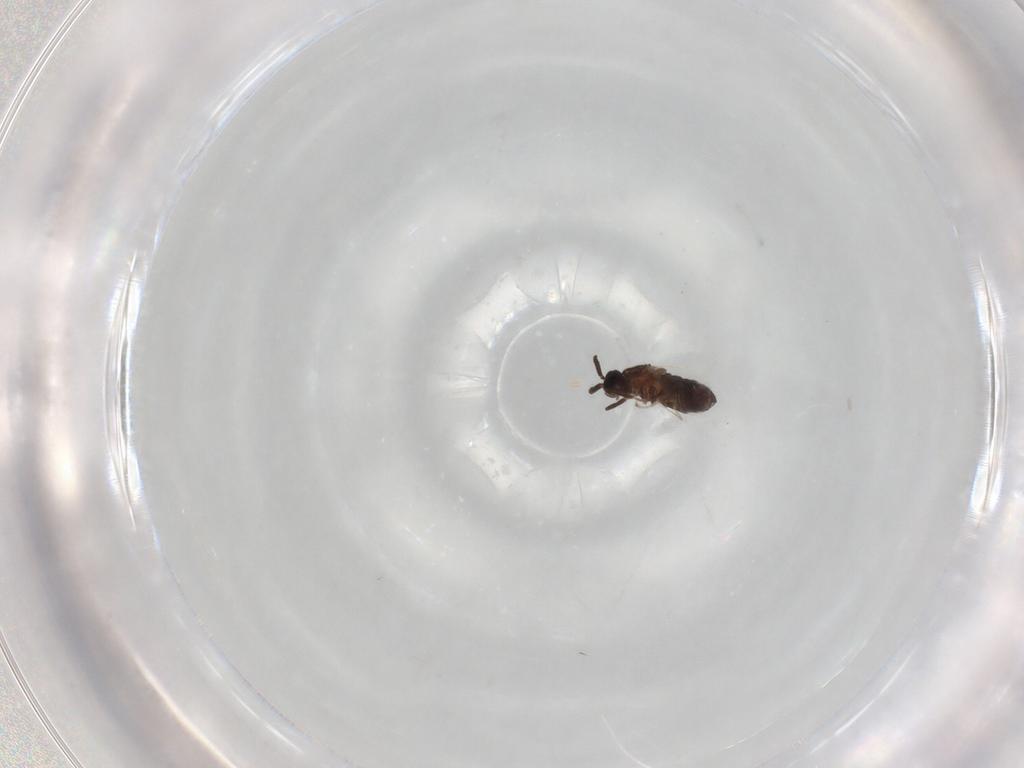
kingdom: Animalia
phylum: Arthropoda
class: Insecta
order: Diptera
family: Scatopsidae
